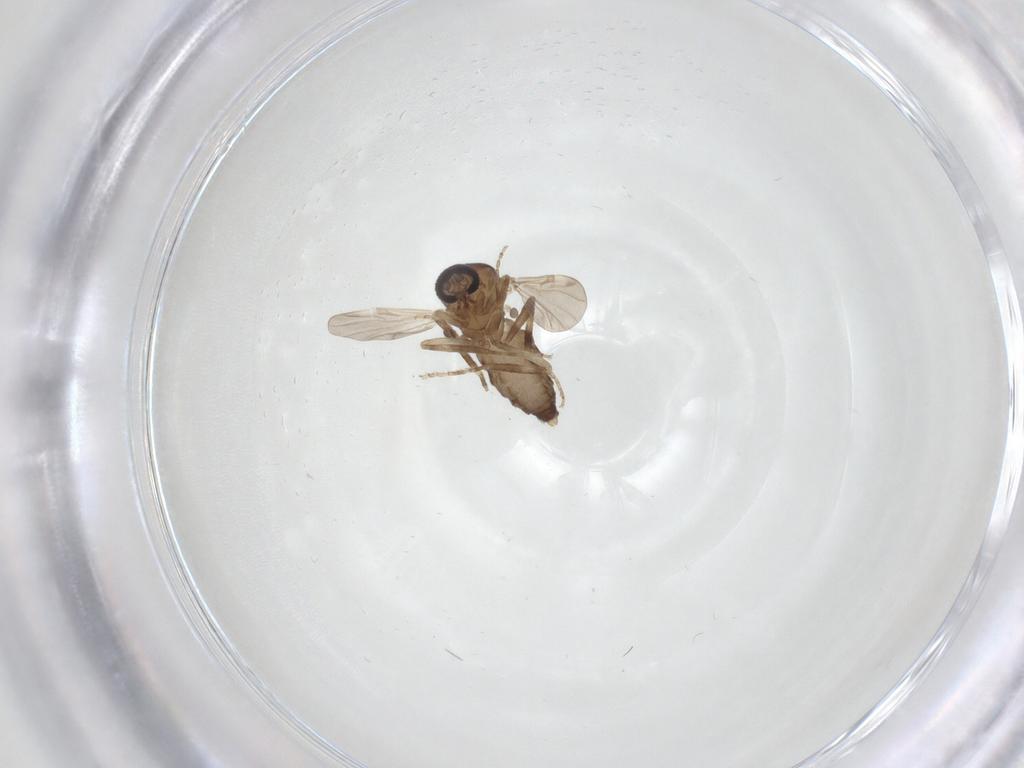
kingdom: Animalia
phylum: Arthropoda
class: Insecta
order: Diptera
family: Ceratopogonidae
